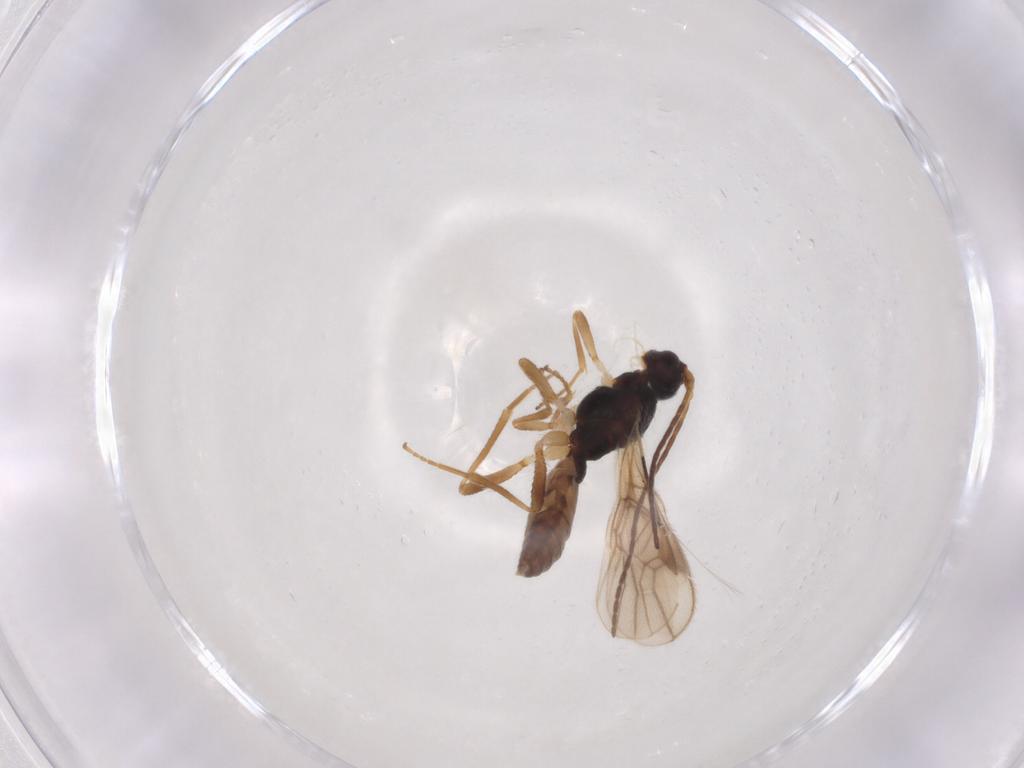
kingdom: Animalia
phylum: Arthropoda
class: Insecta
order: Hymenoptera
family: Braconidae
